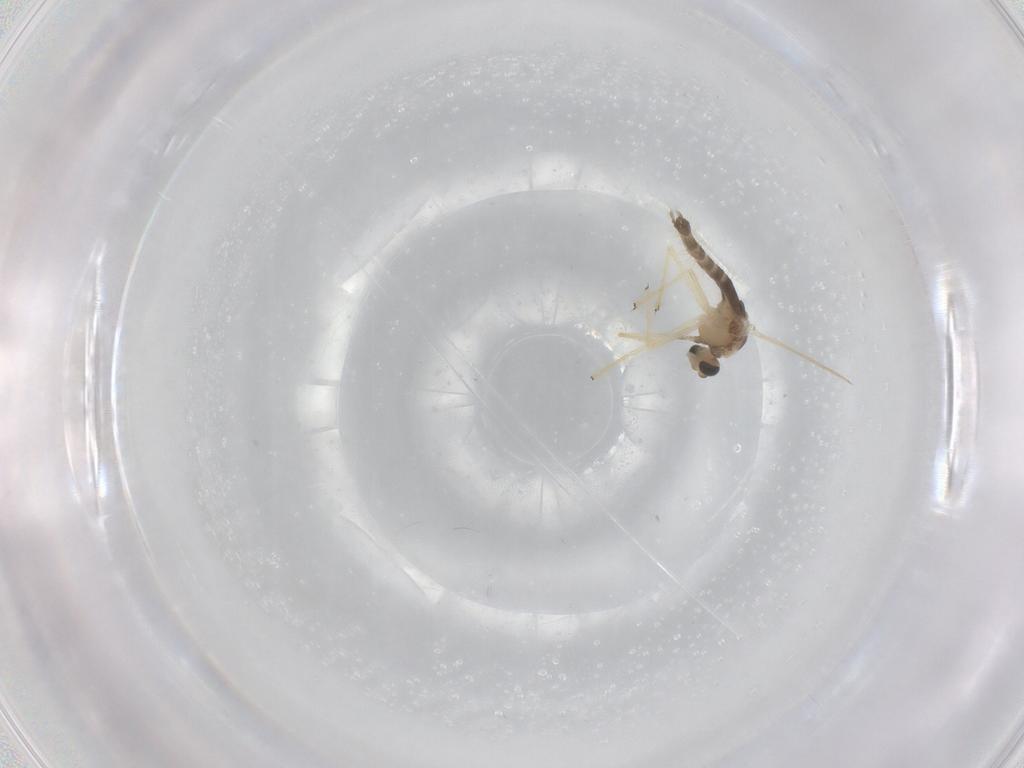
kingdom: Animalia
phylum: Arthropoda
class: Insecta
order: Diptera
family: Chironomidae
